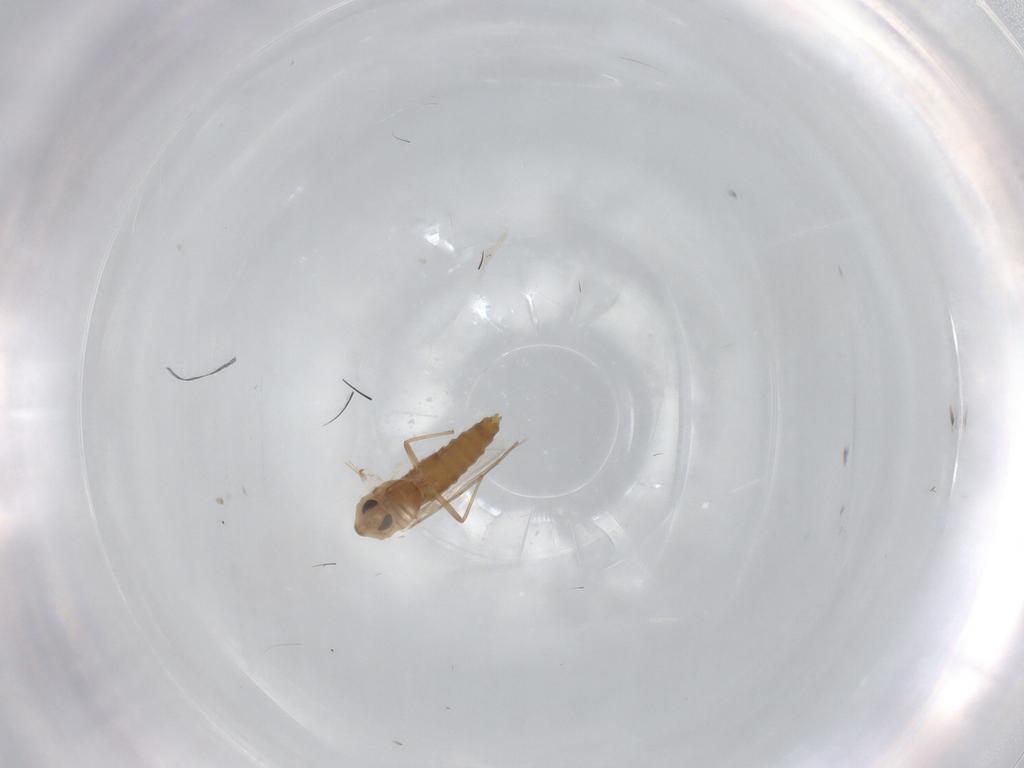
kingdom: Animalia
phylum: Arthropoda
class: Insecta
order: Diptera
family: Chironomidae
